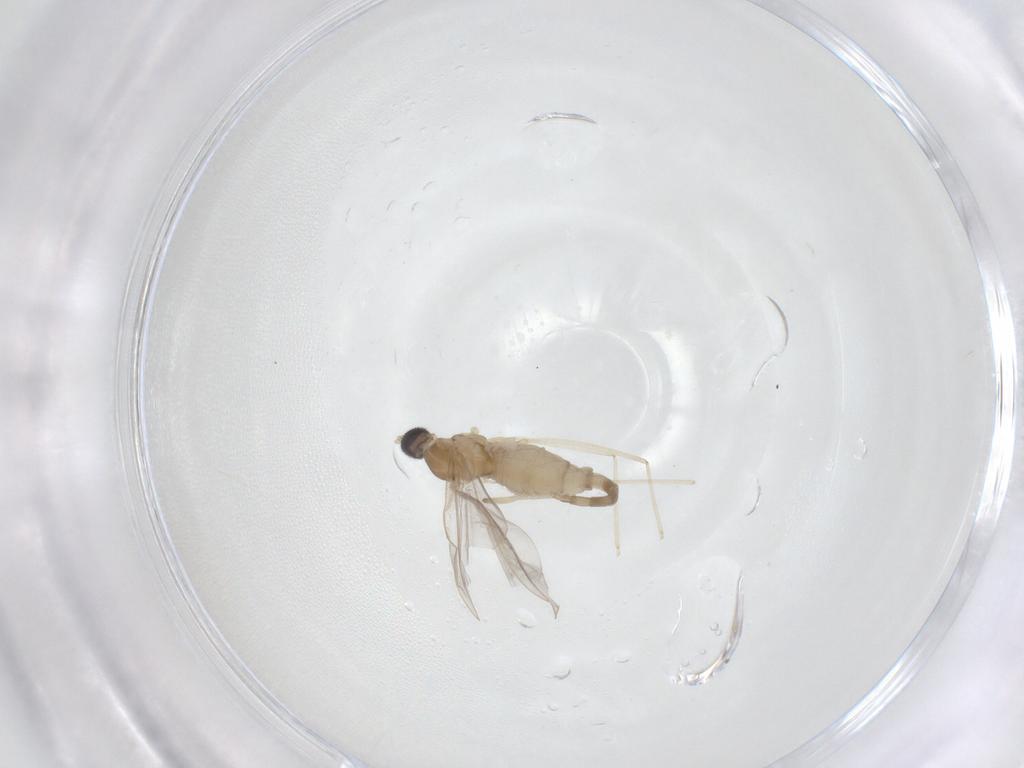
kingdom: Animalia
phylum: Arthropoda
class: Insecta
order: Diptera
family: Cecidomyiidae
